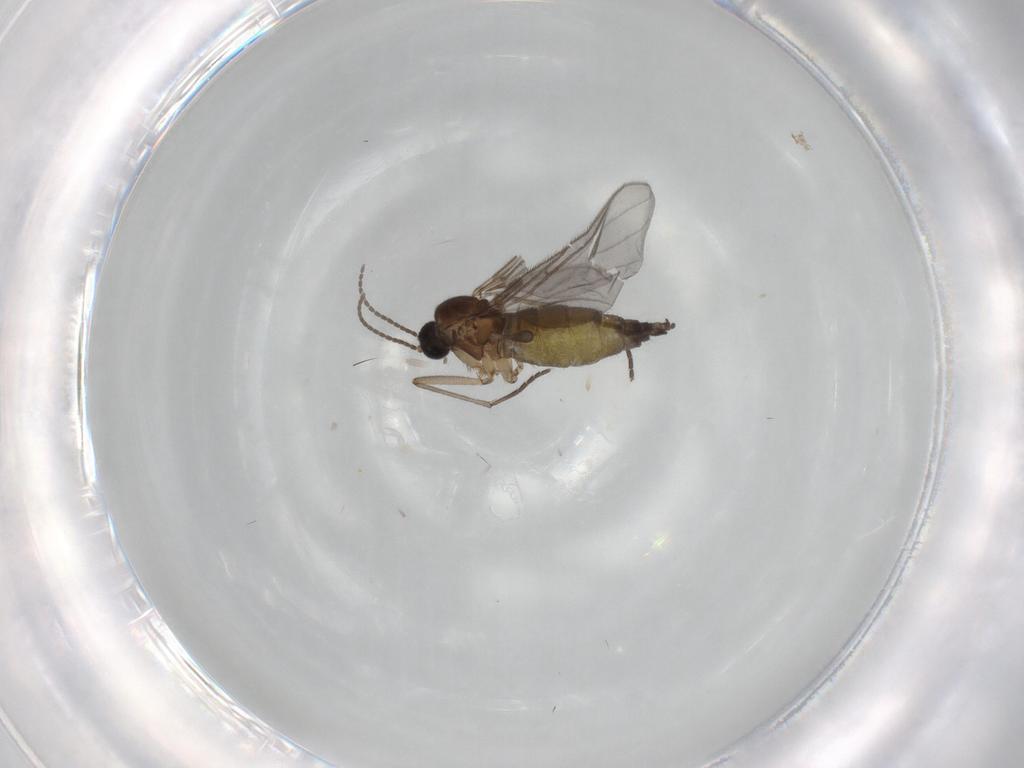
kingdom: Animalia
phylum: Arthropoda
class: Insecta
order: Diptera
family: Sciaridae
